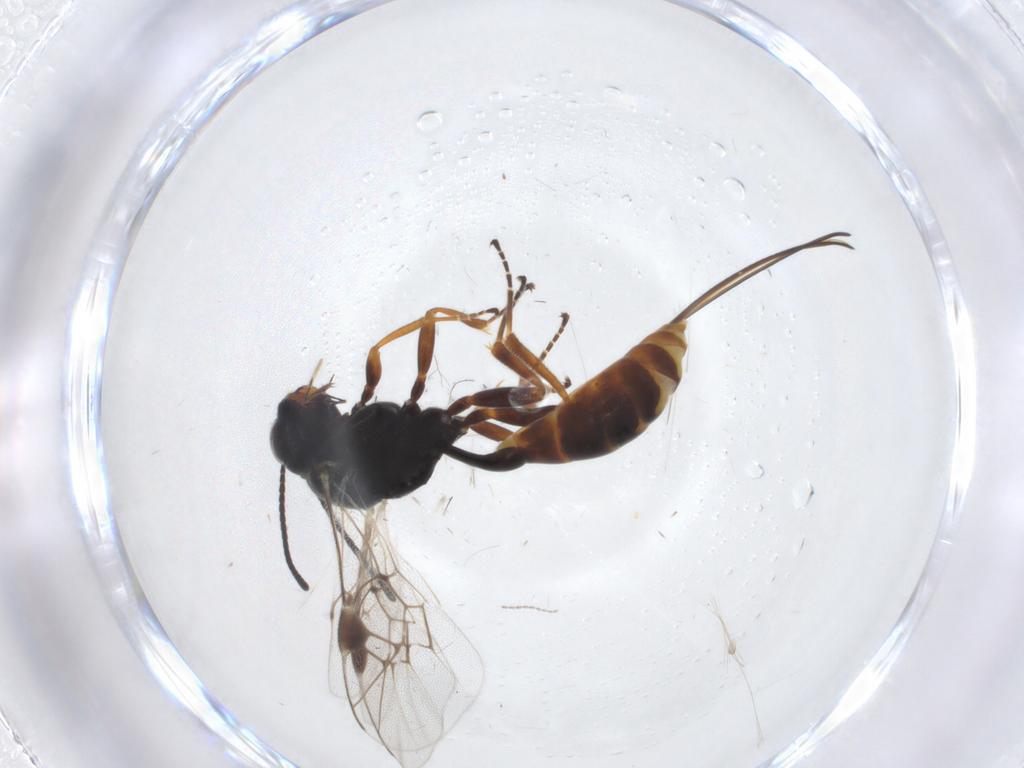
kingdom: Animalia
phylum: Arthropoda
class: Insecta
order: Hymenoptera
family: Ichneumonidae
